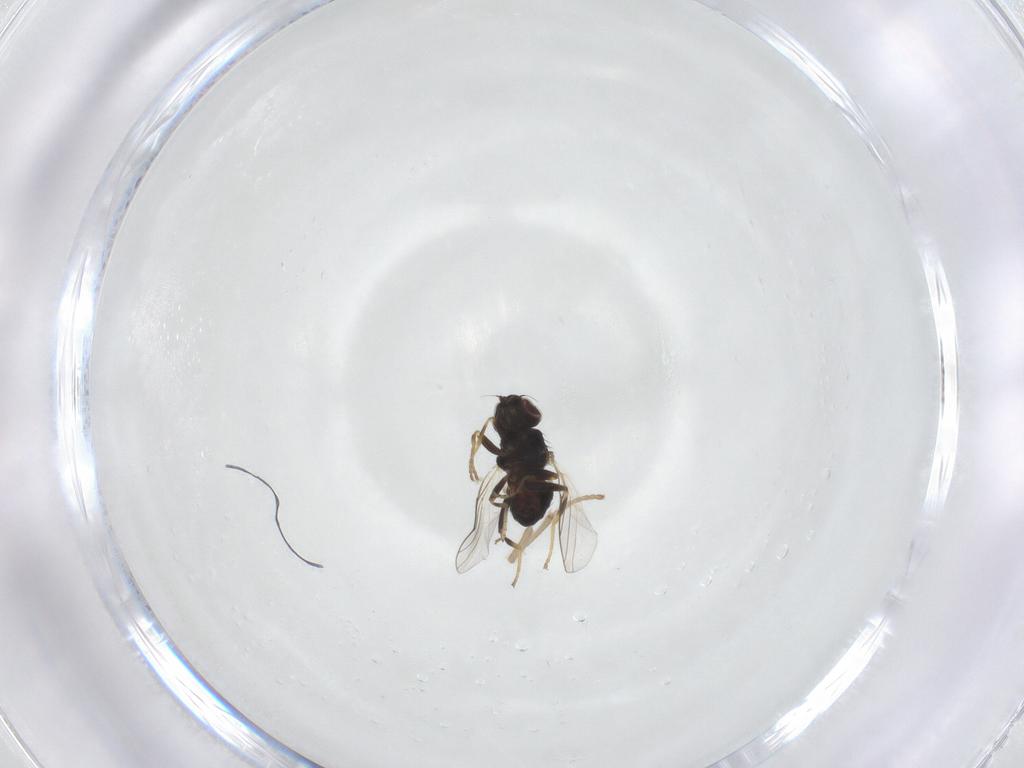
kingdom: Animalia
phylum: Arthropoda
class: Insecta
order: Diptera
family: Psychodidae
